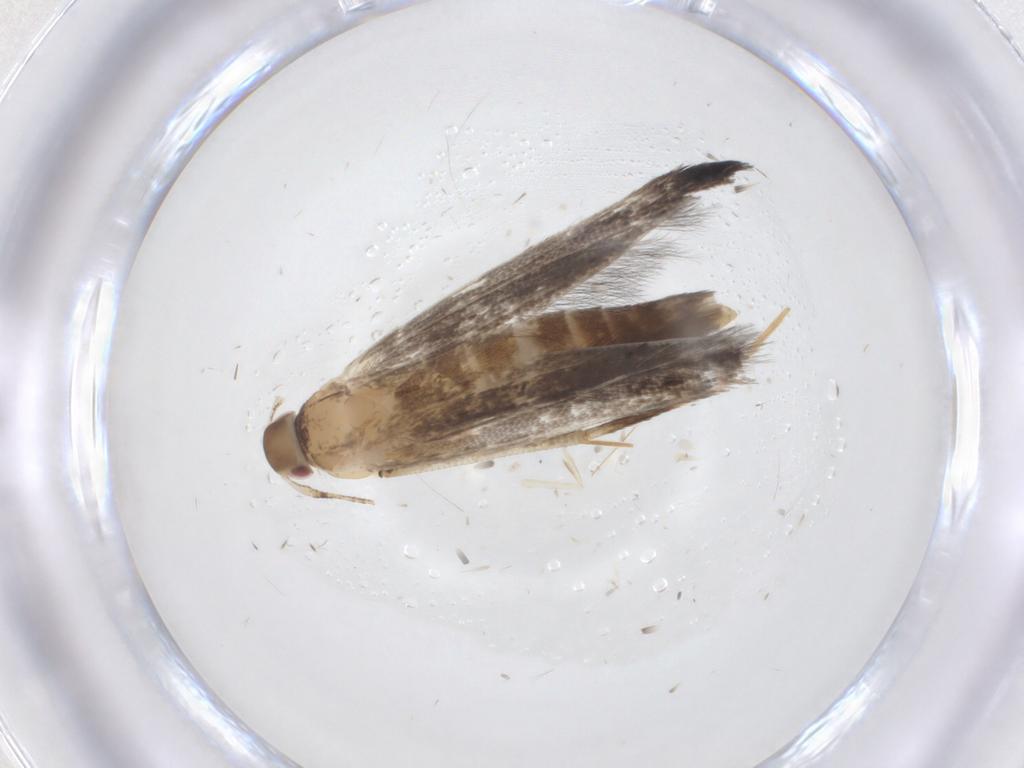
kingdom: Animalia
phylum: Arthropoda
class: Insecta
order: Lepidoptera
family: Cosmopterigidae
